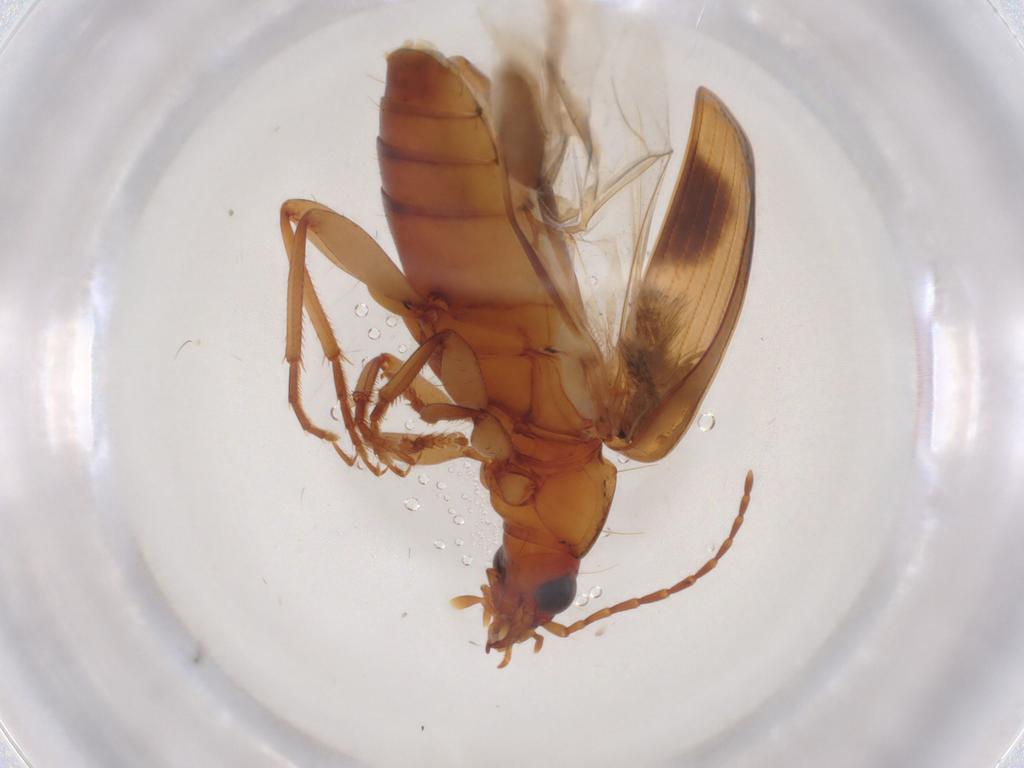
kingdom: Animalia
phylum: Arthropoda
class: Insecta
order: Coleoptera
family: Carabidae
